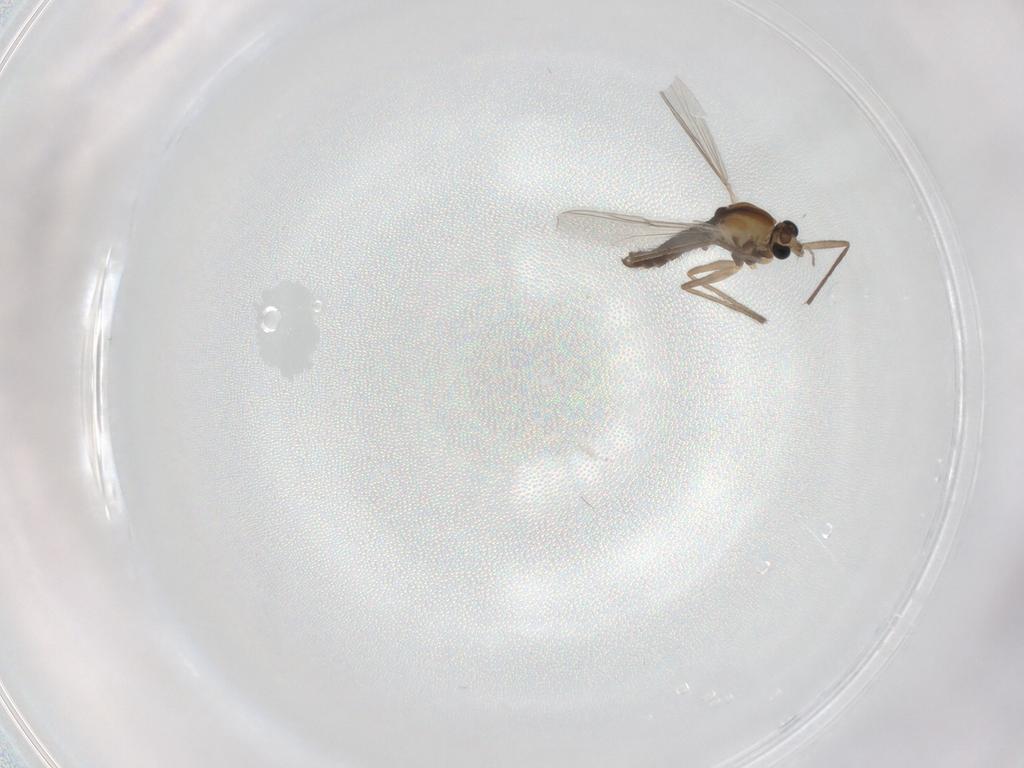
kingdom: Animalia
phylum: Arthropoda
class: Insecta
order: Diptera
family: Chironomidae
